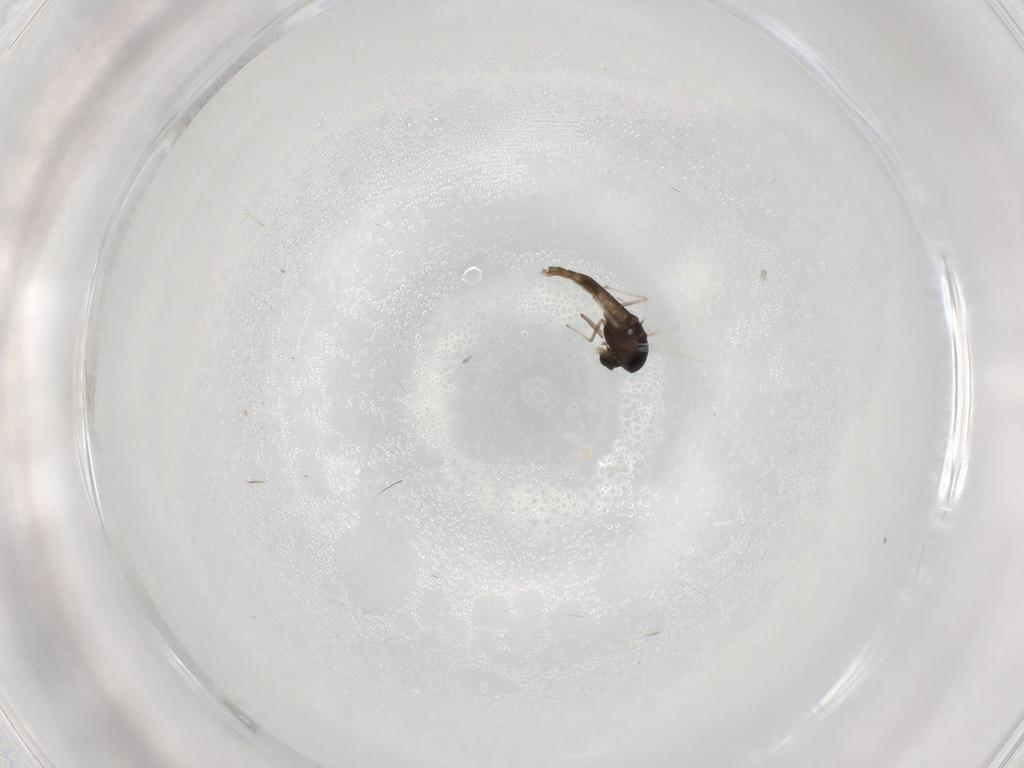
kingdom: Animalia
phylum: Arthropoda
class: Insecta
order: Diptera
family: Chironomidae
